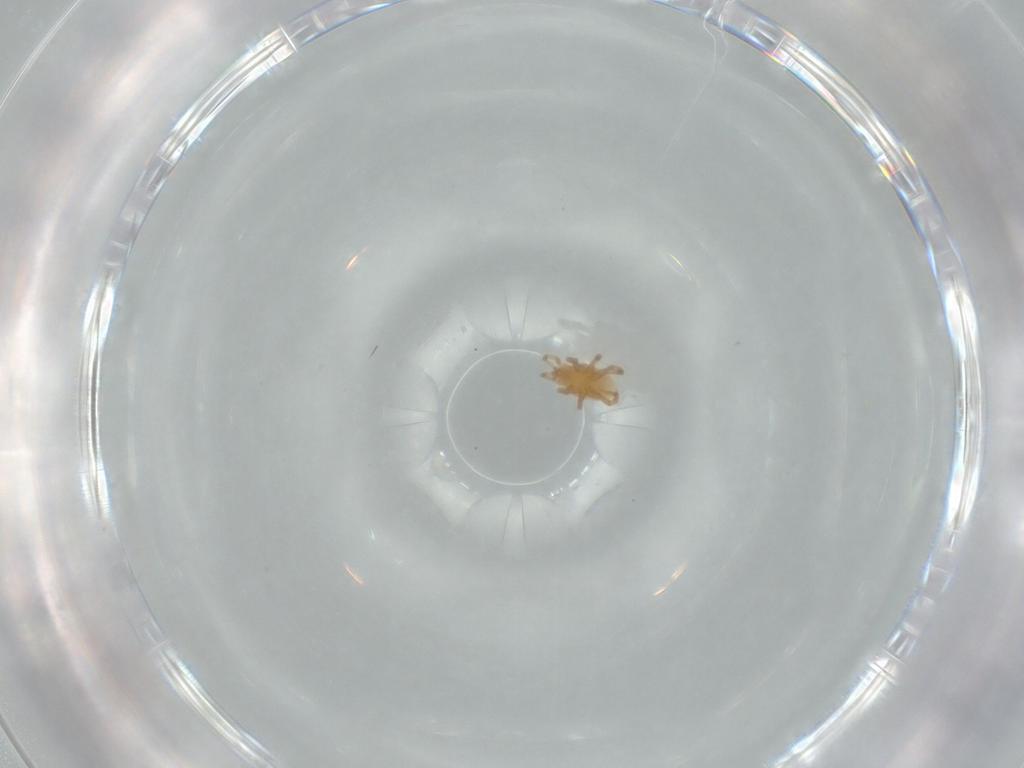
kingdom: Animalia
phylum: Arthropoda
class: Arachnida
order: Mesostigmata
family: Parasitidae
